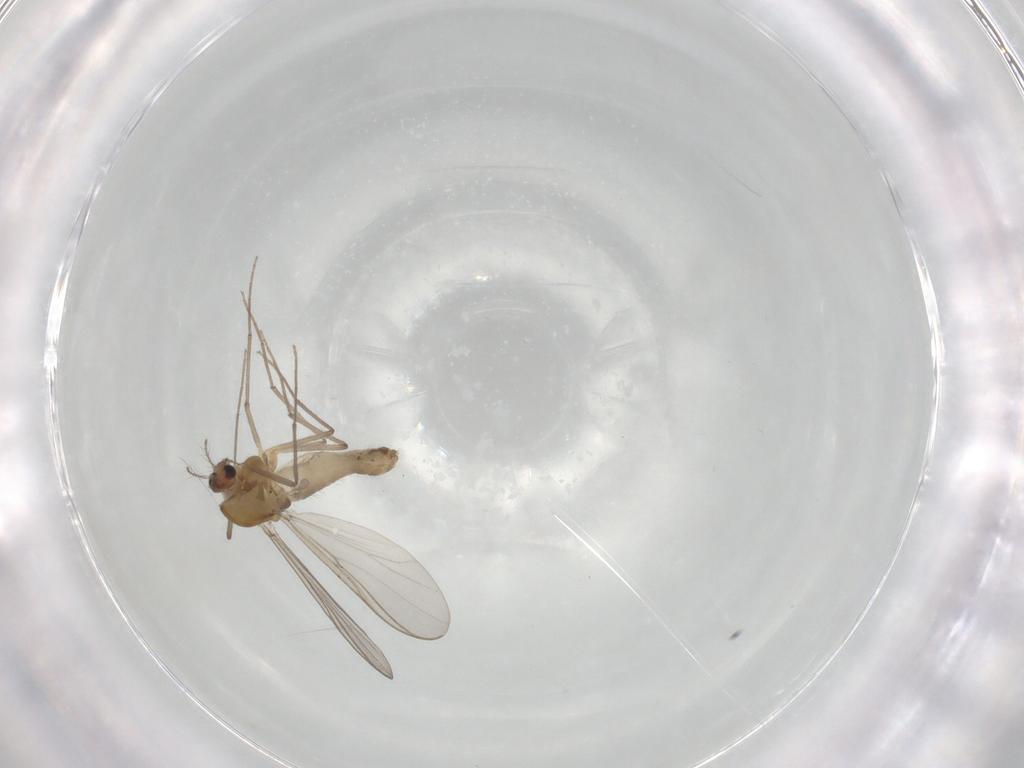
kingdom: Animalia
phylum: Arthropoda
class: Insecta
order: Diptera
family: Chironomidae
